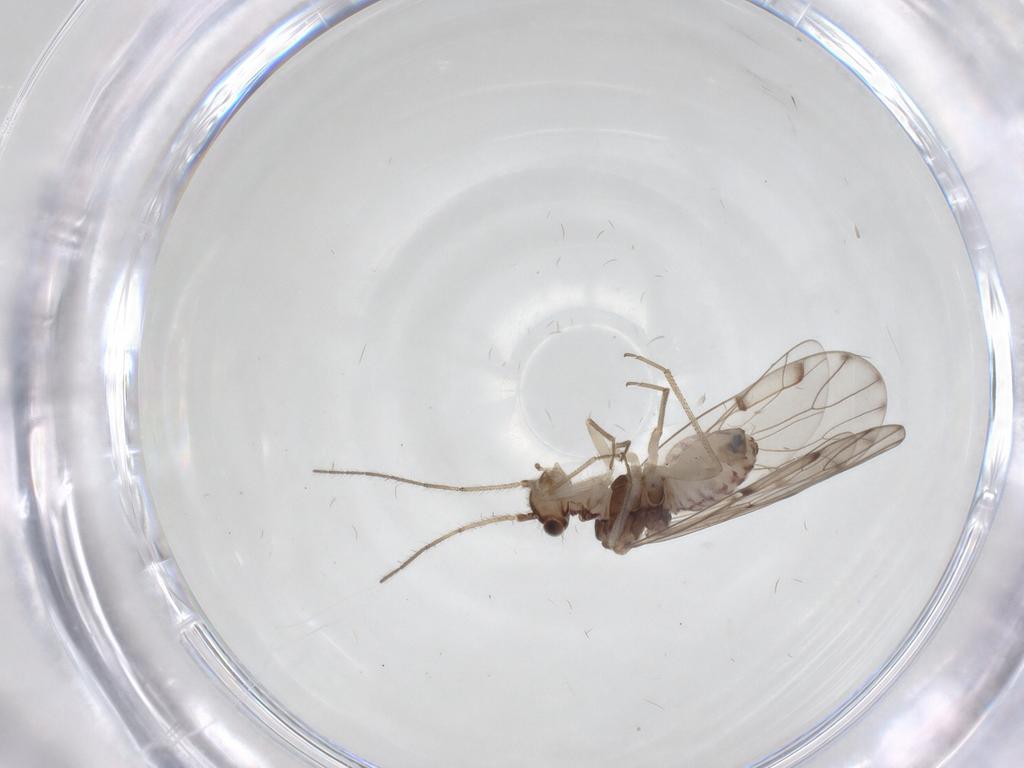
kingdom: Animalia
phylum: Arthropoda
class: Insecta
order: Psocodea
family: Ectopsocidae
